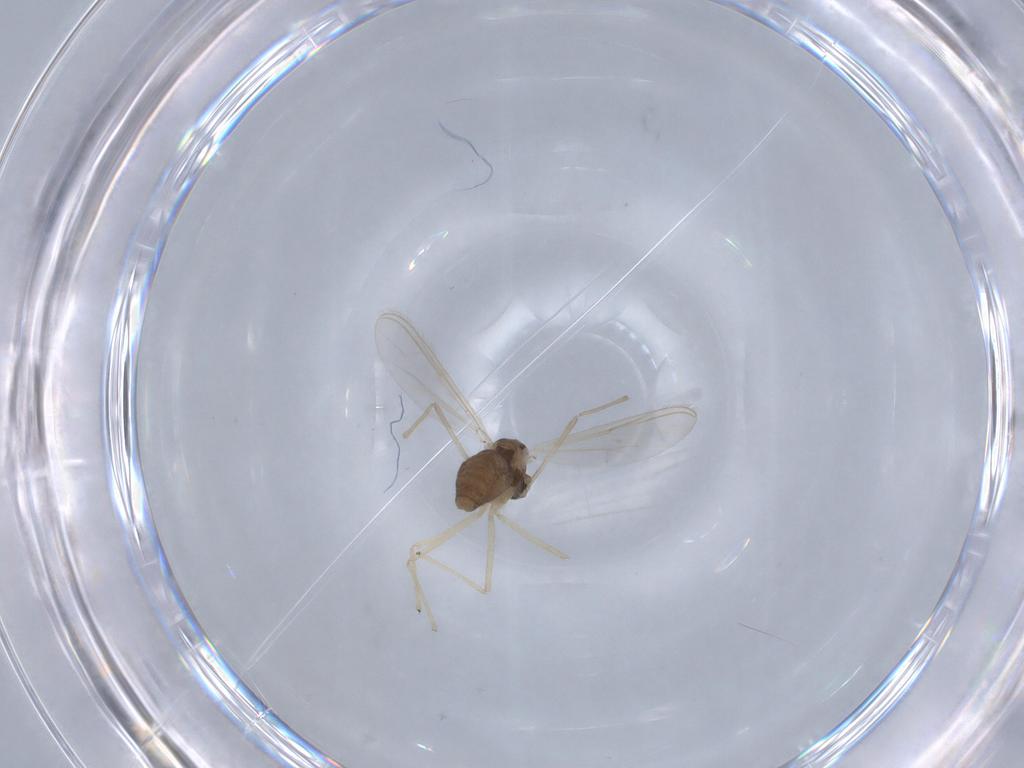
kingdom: Animalia
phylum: Arthropoda
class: Insecta
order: Diptera
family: Chironomidae
